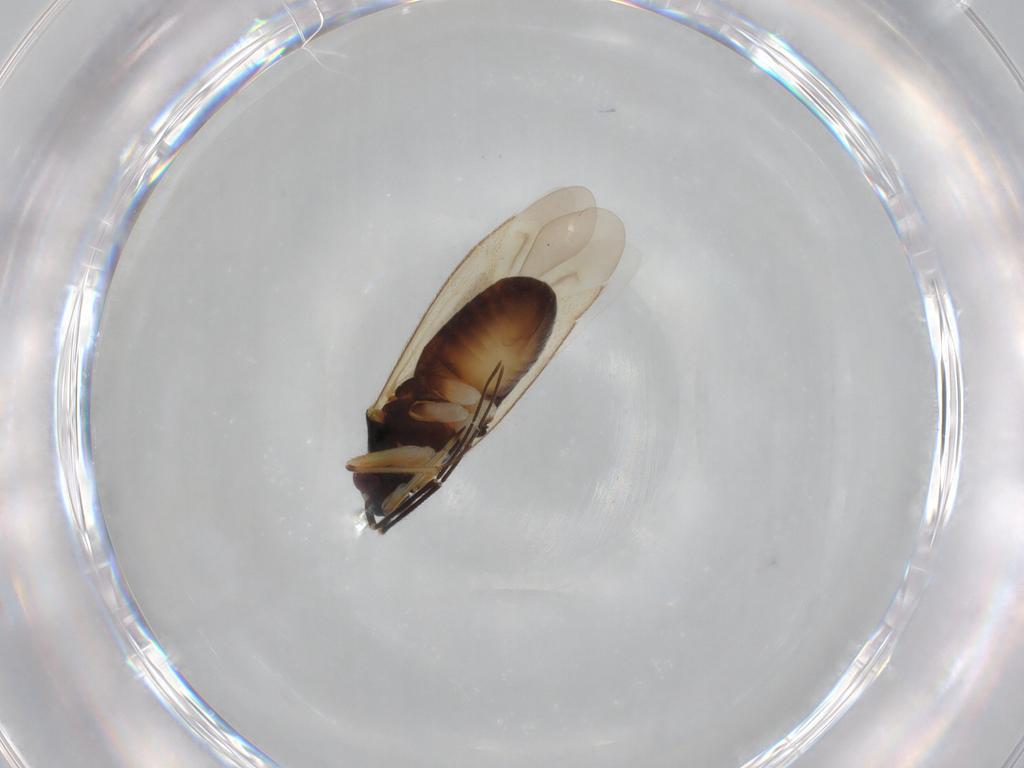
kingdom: Animalia
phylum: Arthropoda
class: Insecta
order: Hemiptera
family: Miridae
